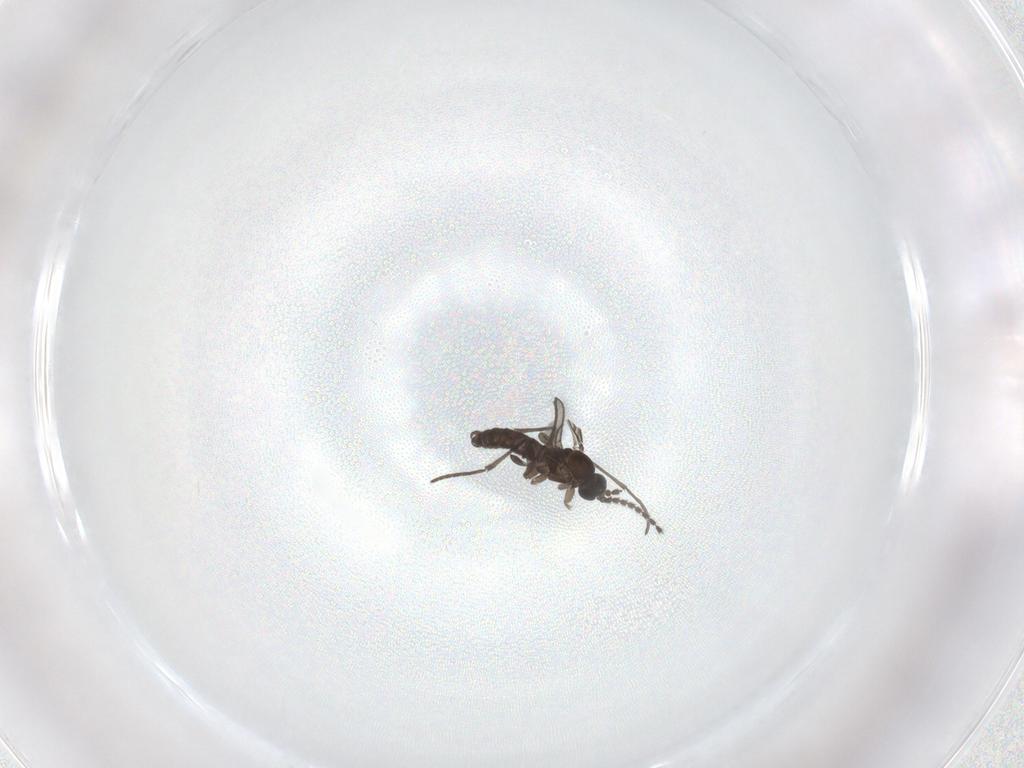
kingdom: Animalia
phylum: Arthropoda
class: Insecta
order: Diptera
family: Sciaridae
